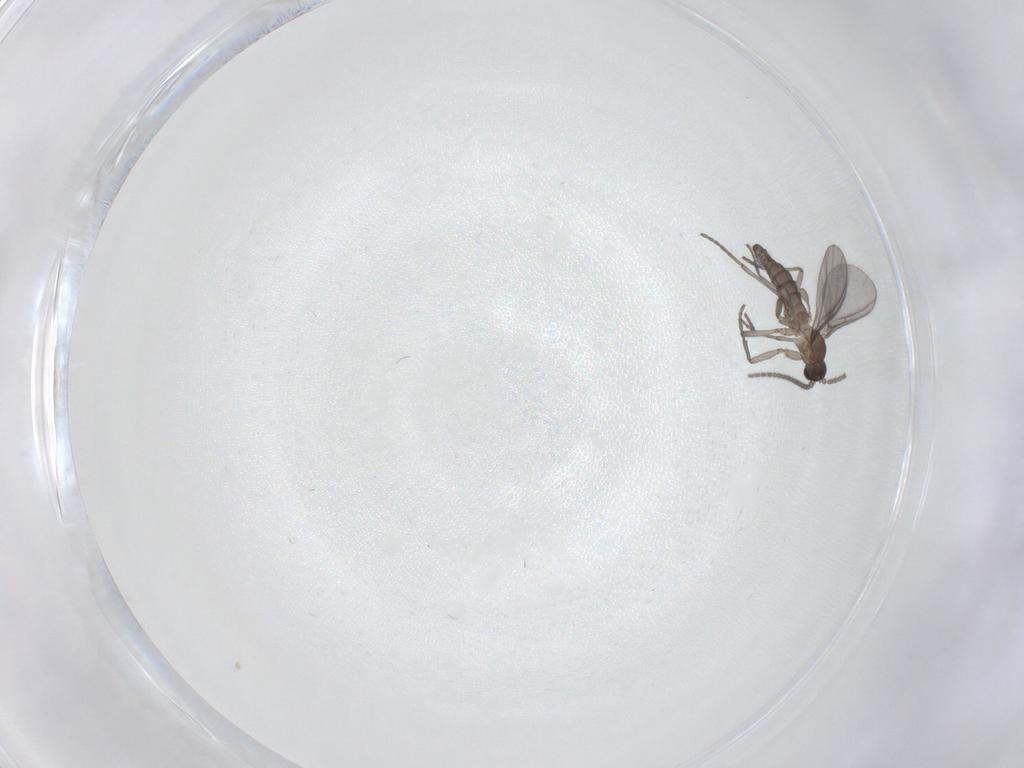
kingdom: Animalia
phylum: Arthropoda
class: Insecta
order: Diptera
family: Sciaridae
